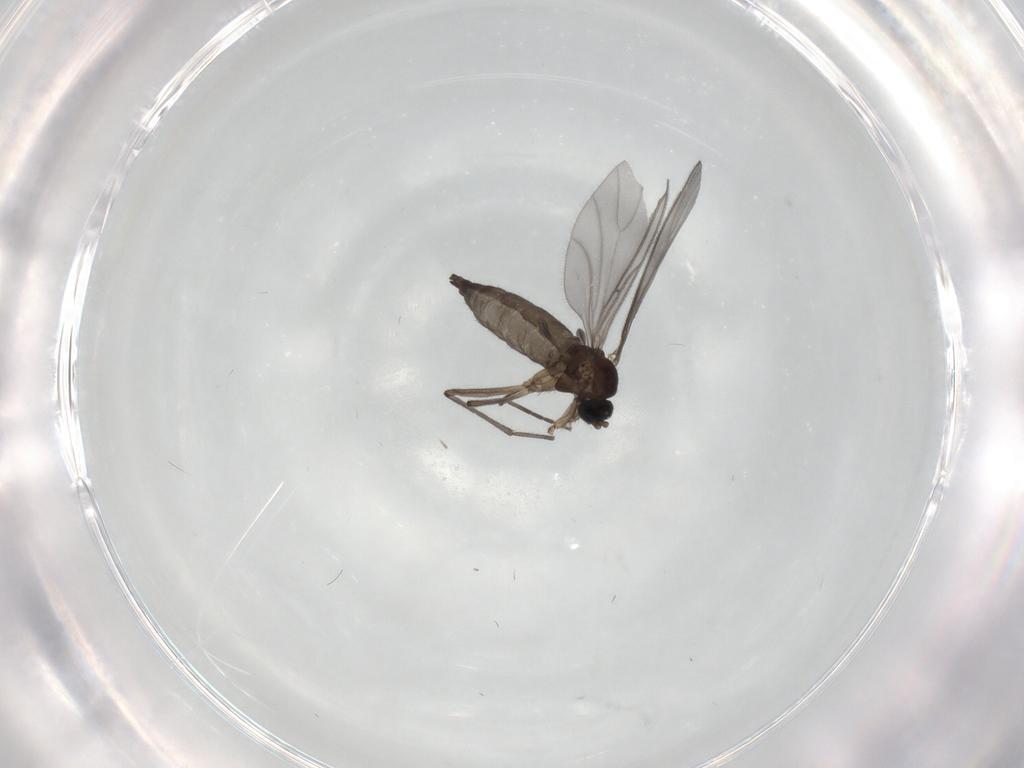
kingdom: Animalia
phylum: Arthropoda
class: Insecta
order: Diptera
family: Sciaridae
